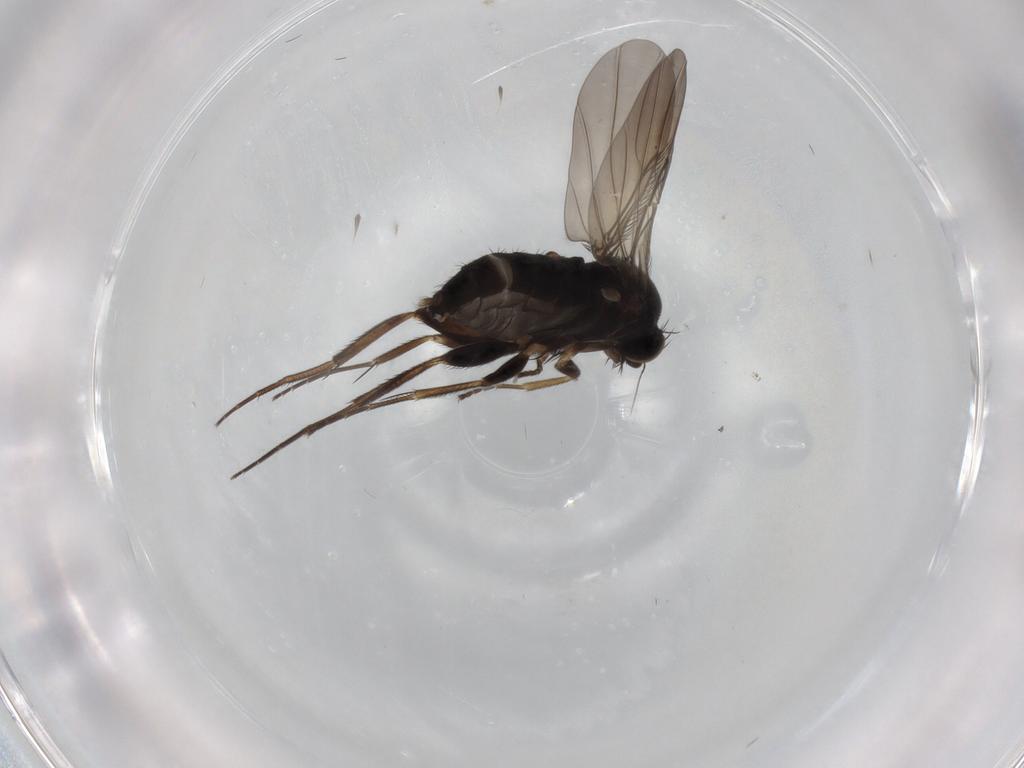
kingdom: Animalia
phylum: Arthropoda
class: Insecta
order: Diptera
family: Phoridae
